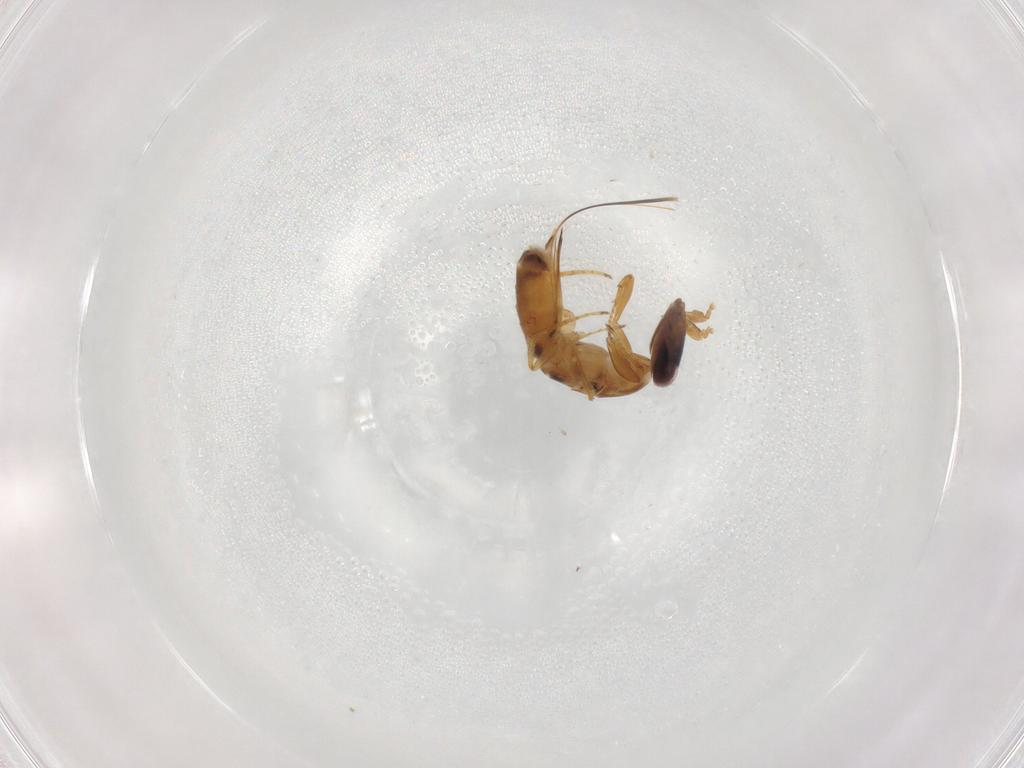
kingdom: Animalia
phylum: Arthropoda
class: Insecta
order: Hymenoptera
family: Agaonidae
